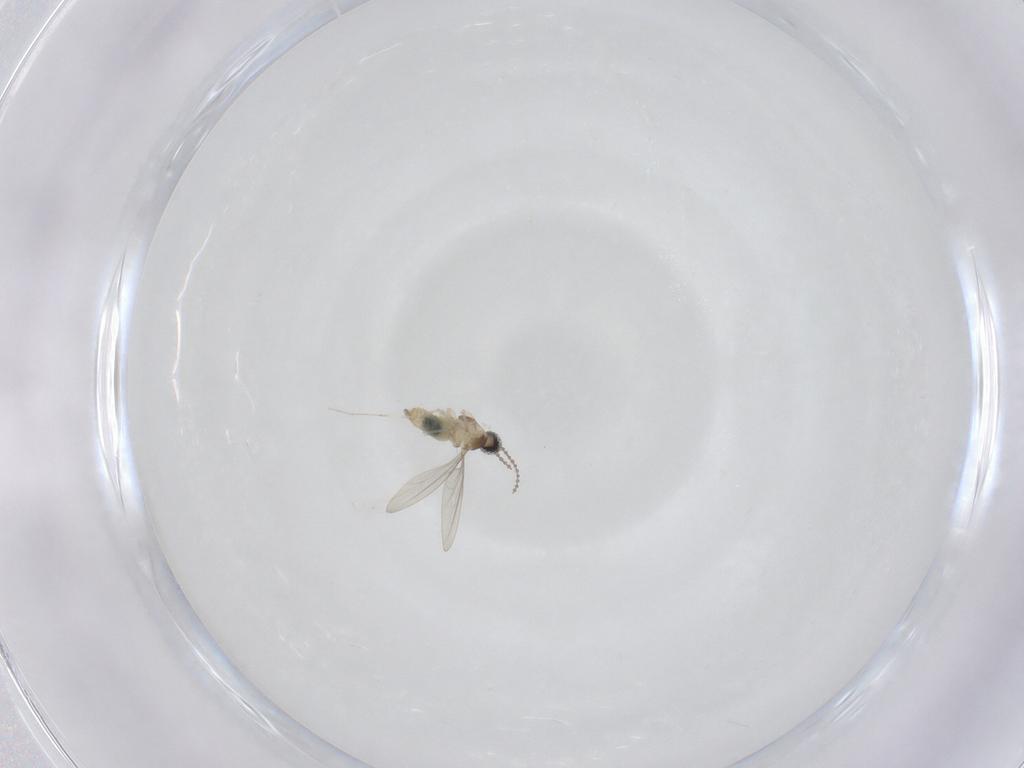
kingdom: Animalia
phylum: Arthropoda
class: Insecta
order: Diptera
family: Cecidomyiidae
